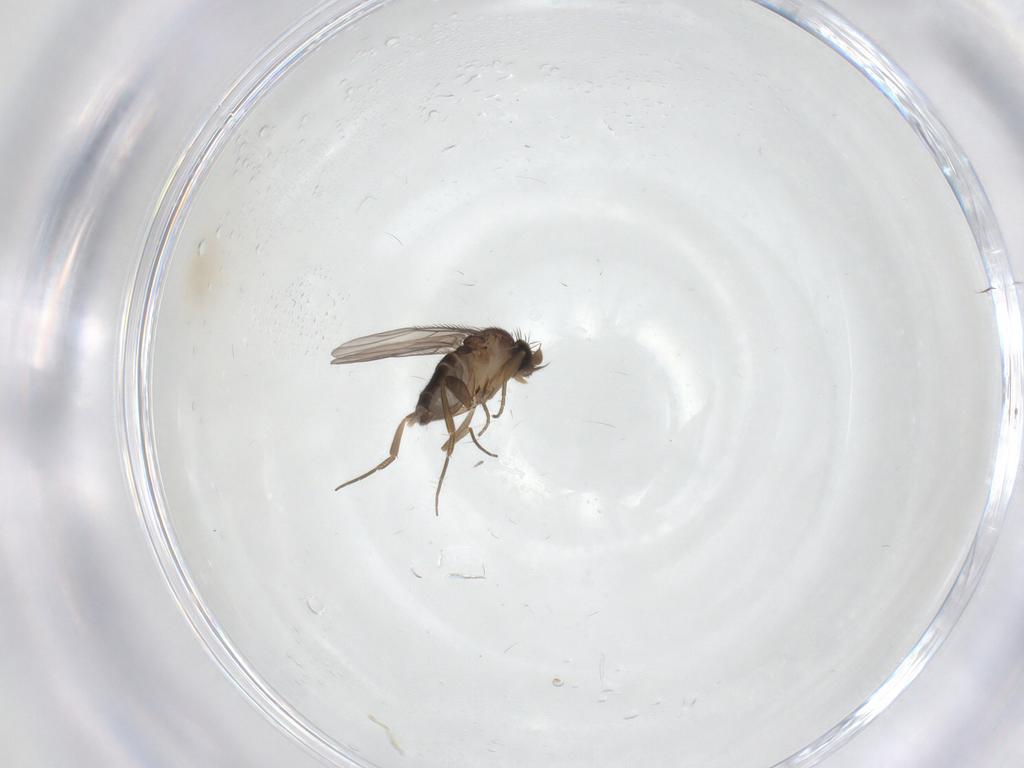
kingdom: Animalia
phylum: Arthropoda
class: Insecta
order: Diptera
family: Phoridae
